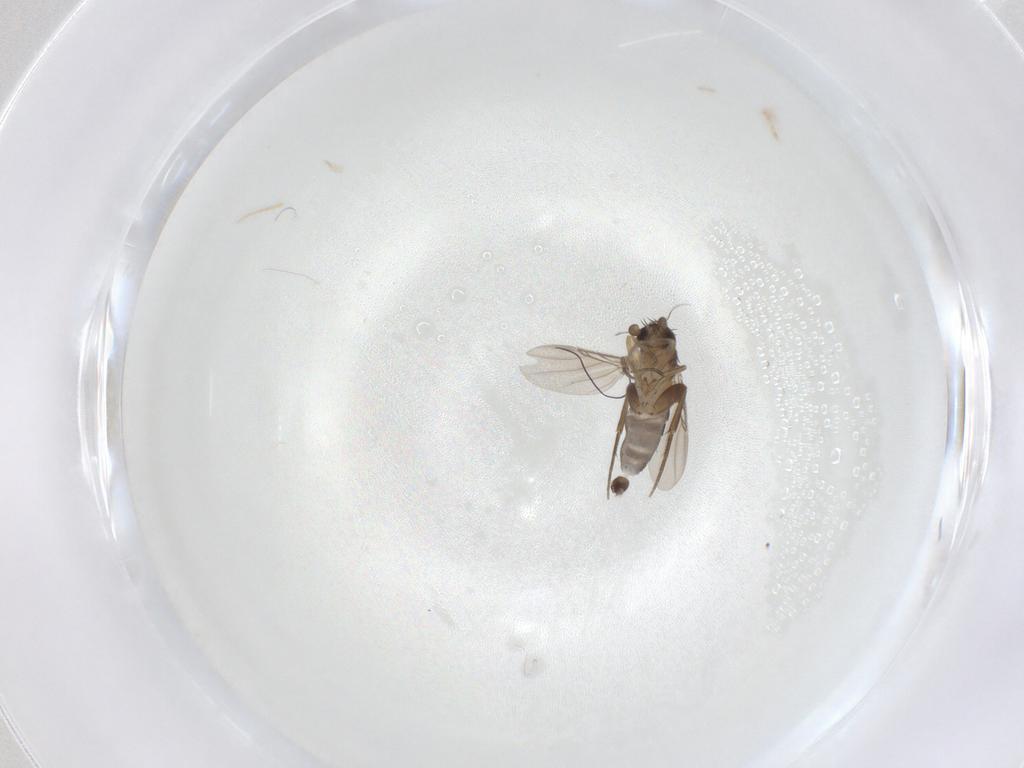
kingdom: Animalia
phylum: Arthropoda
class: Insecta
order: Diptera
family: Phoridae
